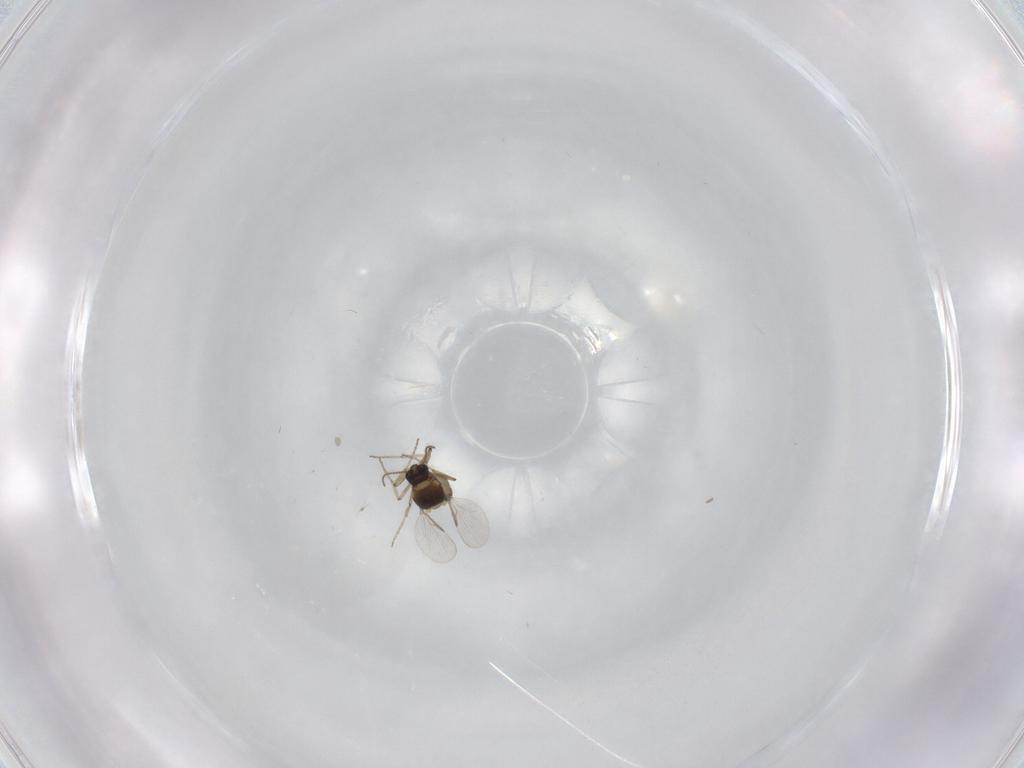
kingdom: Animalia
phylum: Arthropoda
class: Insecta
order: Diptera
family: Ceratopogonidae
